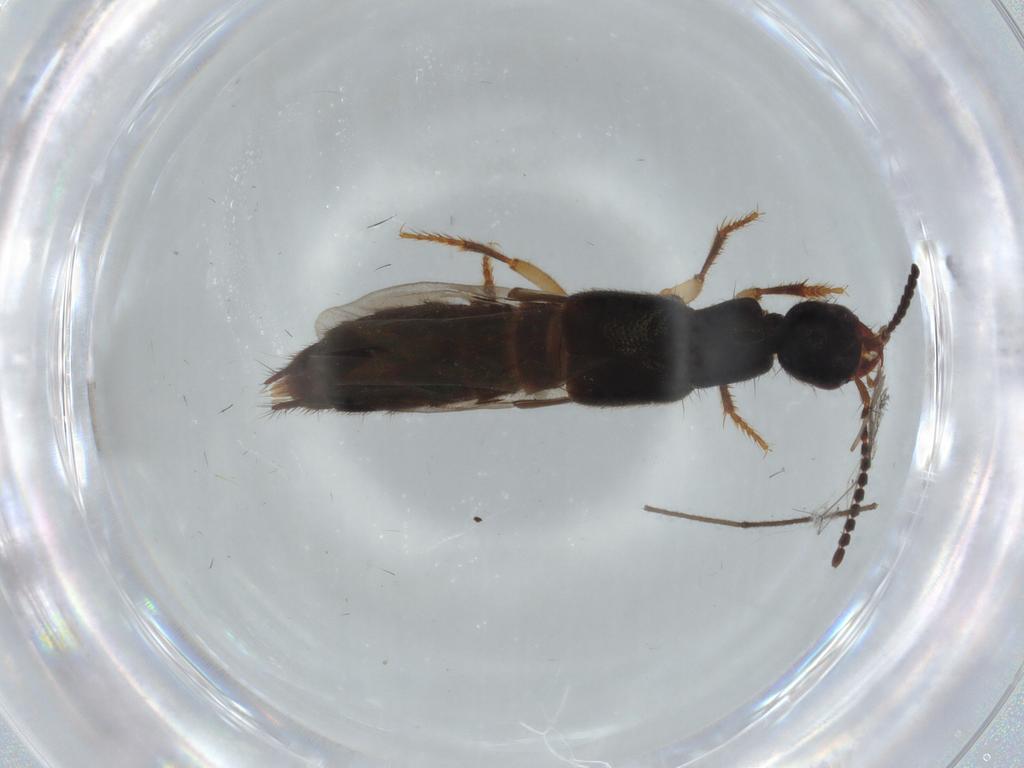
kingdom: Animalia
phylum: Arthropoda
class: Insecta
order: Coleoptera
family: Staphylinidae
